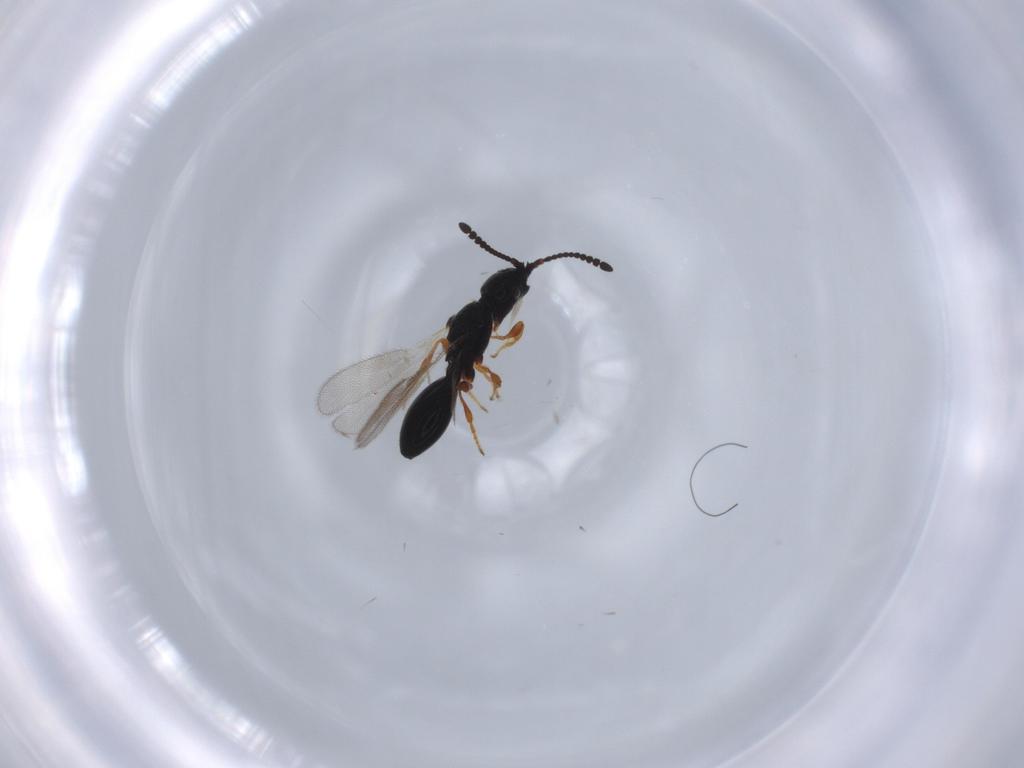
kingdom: Animalia
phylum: Arthropoda
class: Insecta
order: Hymenoptera
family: Diapriidae
